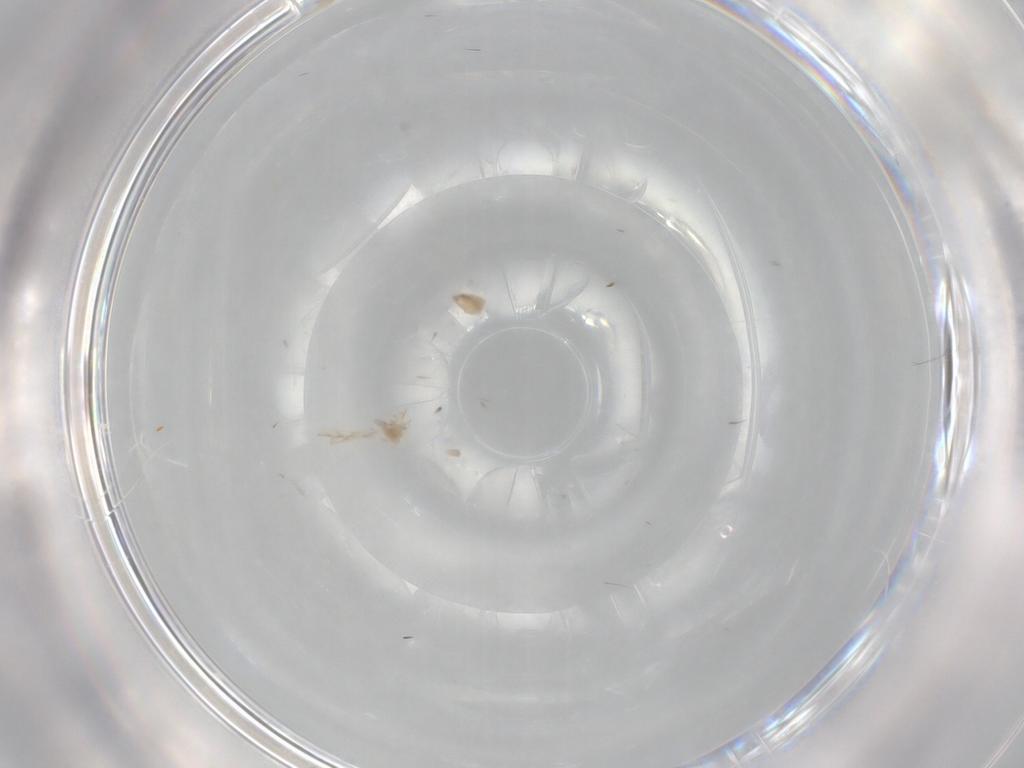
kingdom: Animalia
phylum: Arthropoda
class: Insecta
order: Diptera
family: Cecidomyiidae
